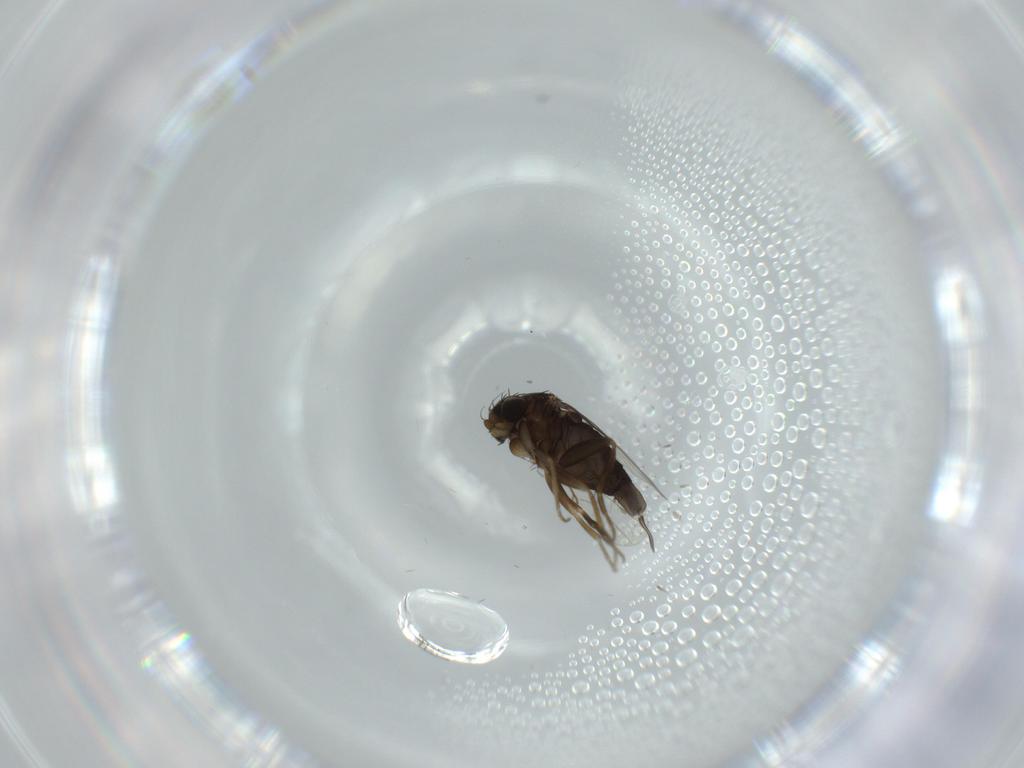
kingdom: Animalia
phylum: Arthropoda
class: Insecta
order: Diptera
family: Phoridae
